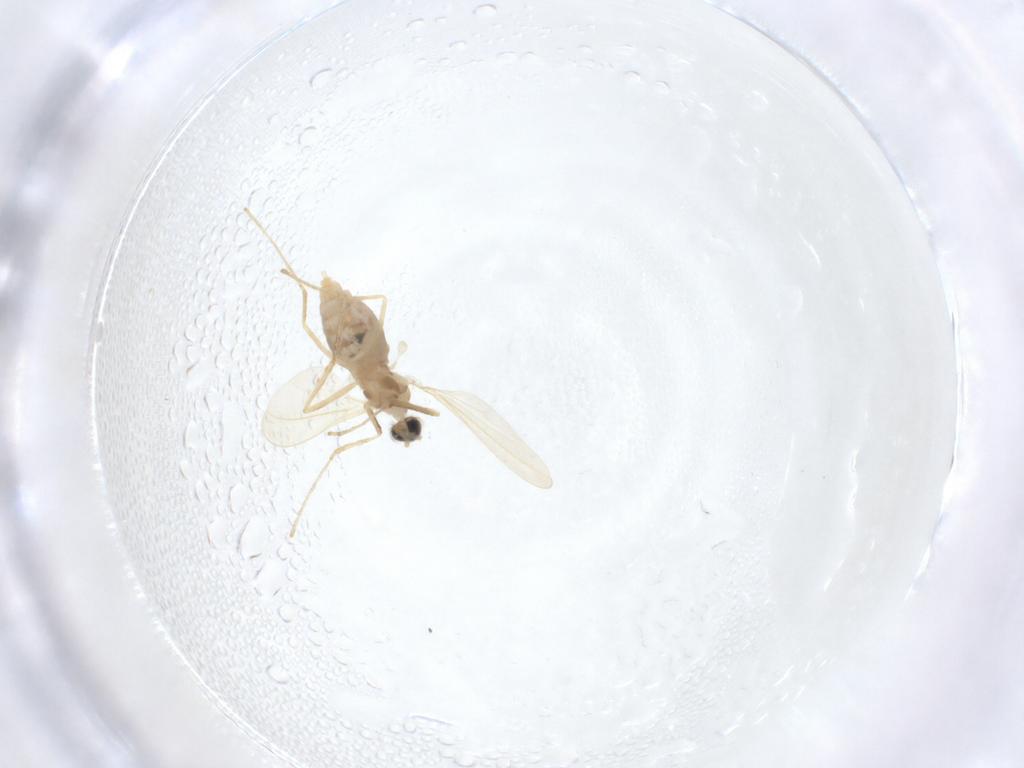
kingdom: Animalia
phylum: Arthropoda
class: Insecta
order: Diptera
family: Cecidomyiidae
